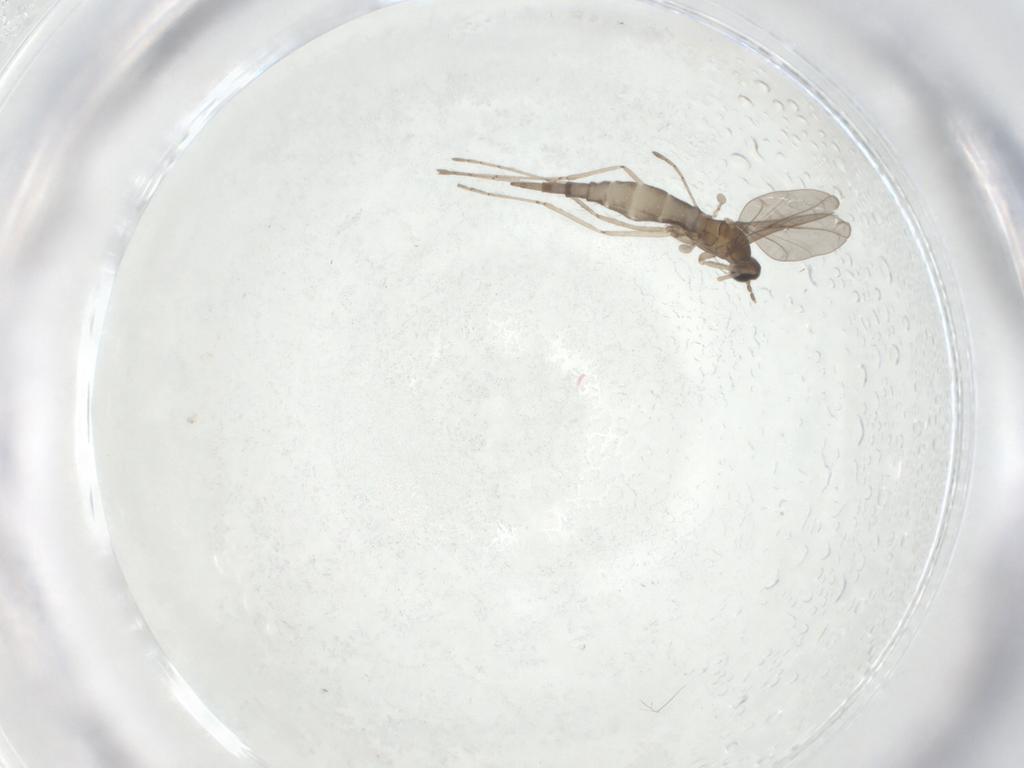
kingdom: Animalia
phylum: Arthropoda
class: Insecta
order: Diptera
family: Cecidomyiidae
